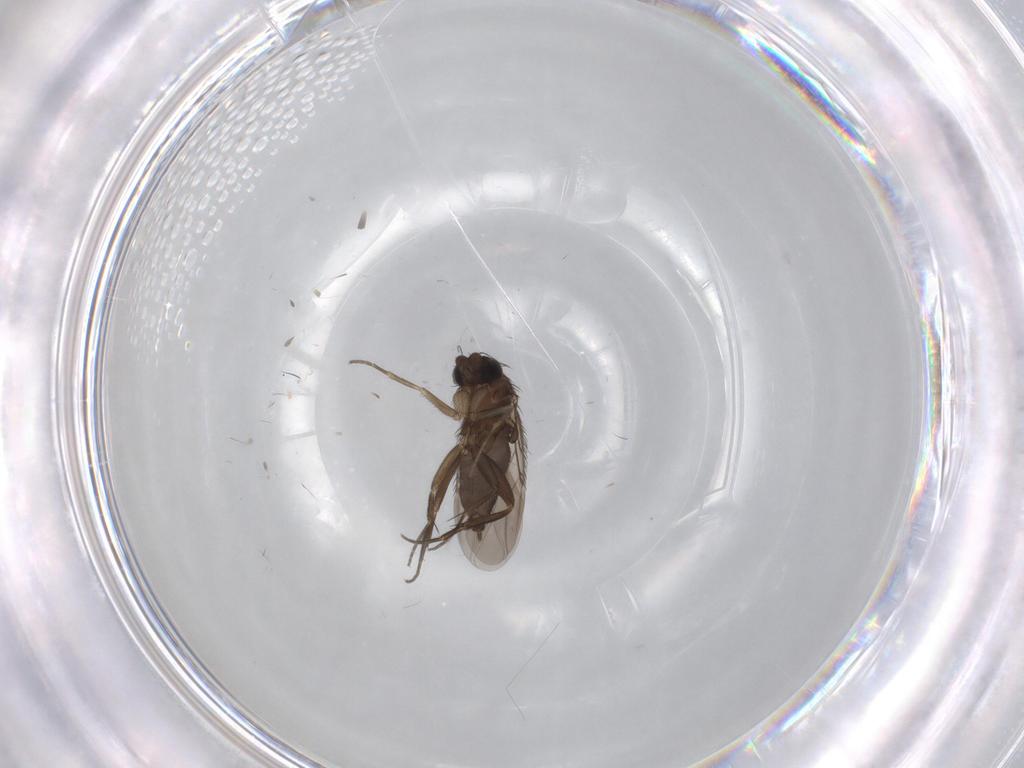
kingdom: Animalia
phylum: Arthropoda
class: Insecta
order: Diptera
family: Phoridae
